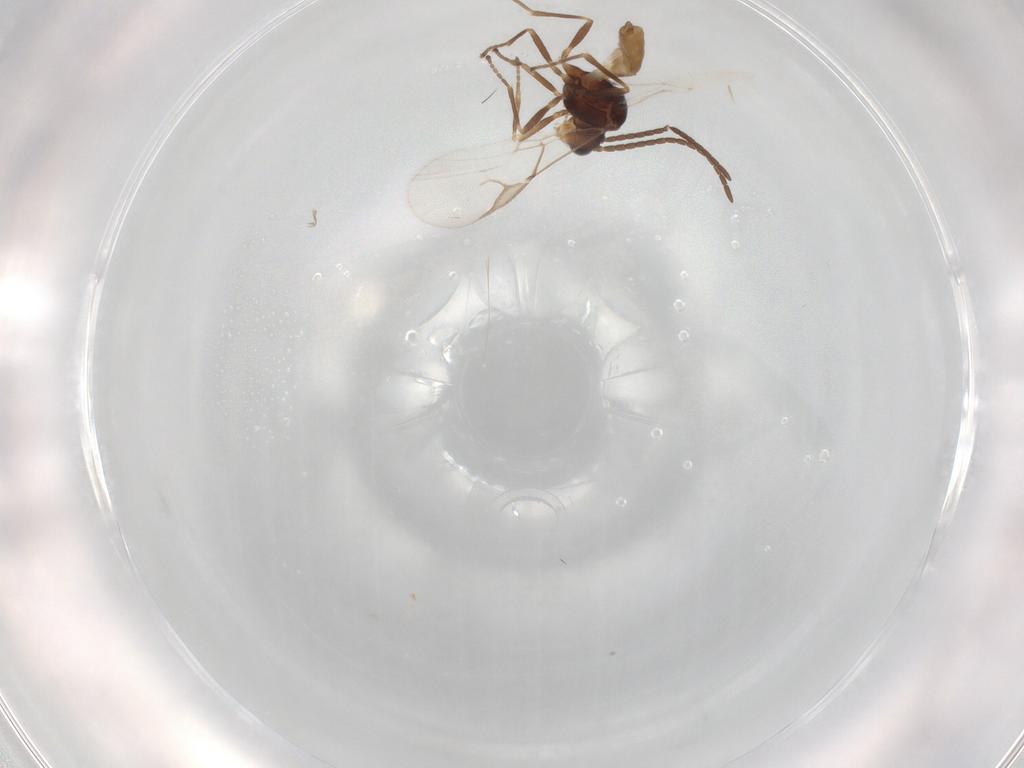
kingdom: Animalia
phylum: Arthropoda
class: Insecta
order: Hymenoptera
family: Braconidae
